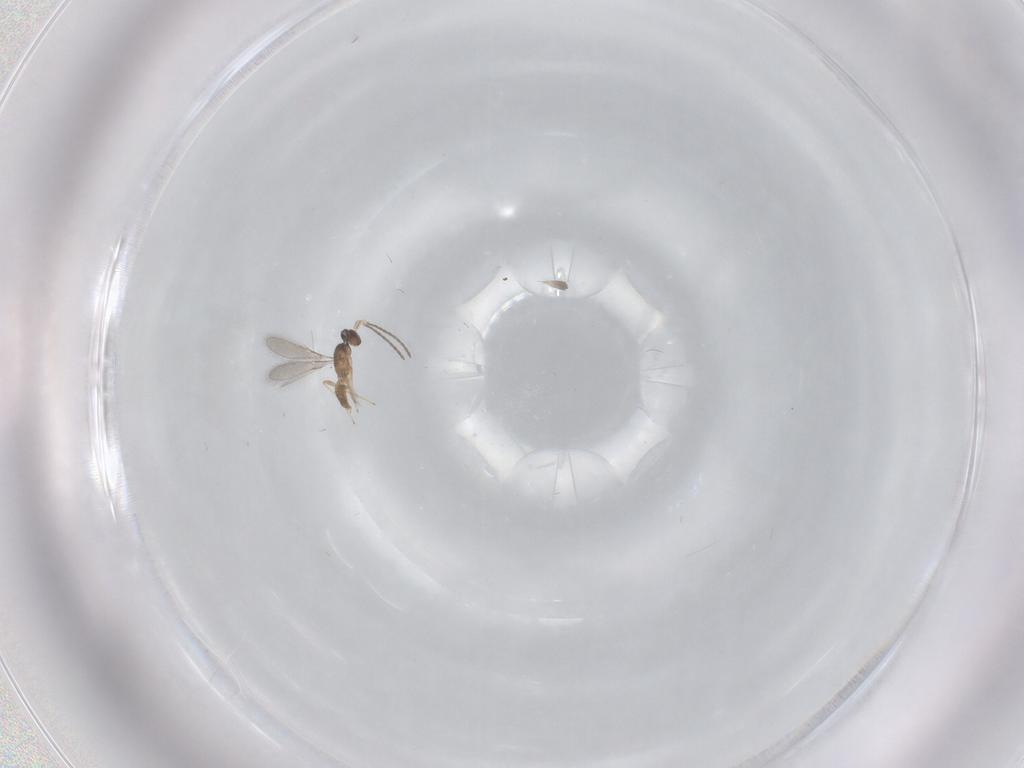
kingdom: Animalia
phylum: Arthropoda
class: Insecta
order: Hymenoptera
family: Mymaridae
